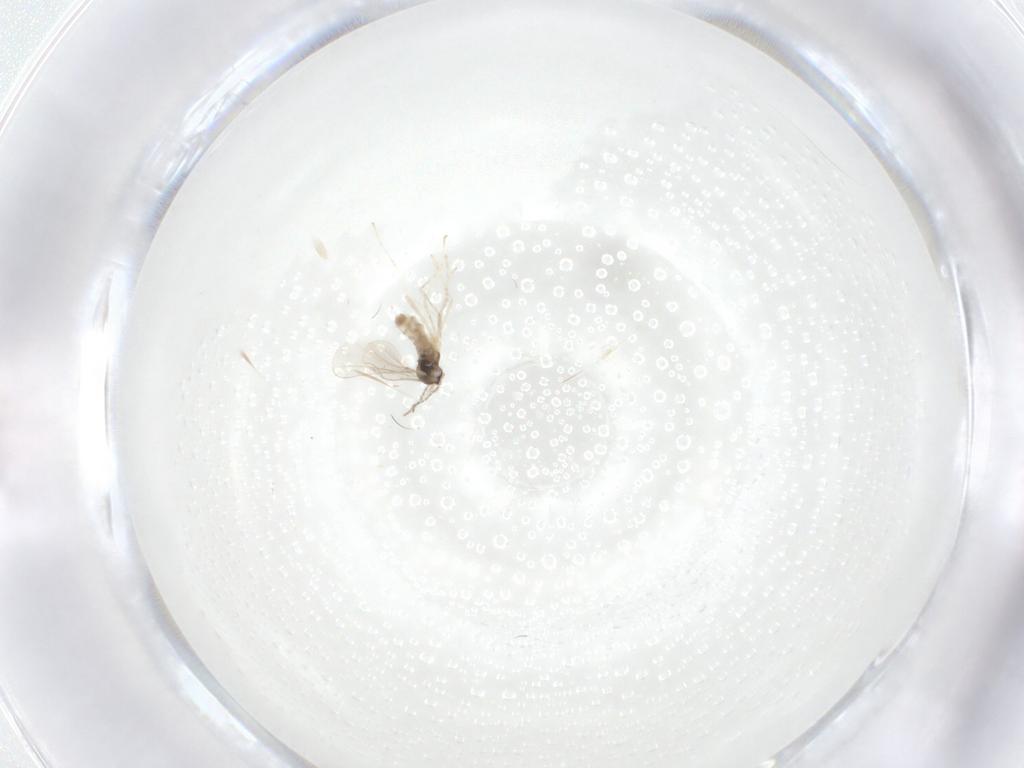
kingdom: Animalia
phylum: Arthropoda
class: Insecta
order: Diptera
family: Cecidomyiidae
